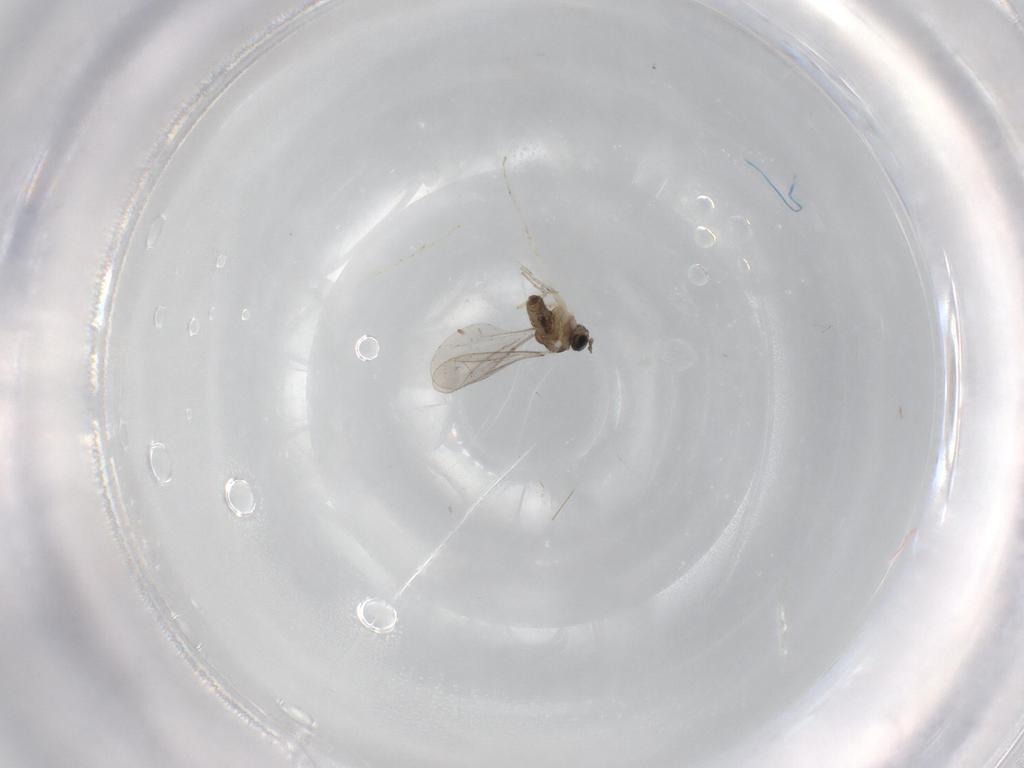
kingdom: Animalia
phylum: Arthropoda
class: Insecta
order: Diptera
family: Cecidomyiidae
